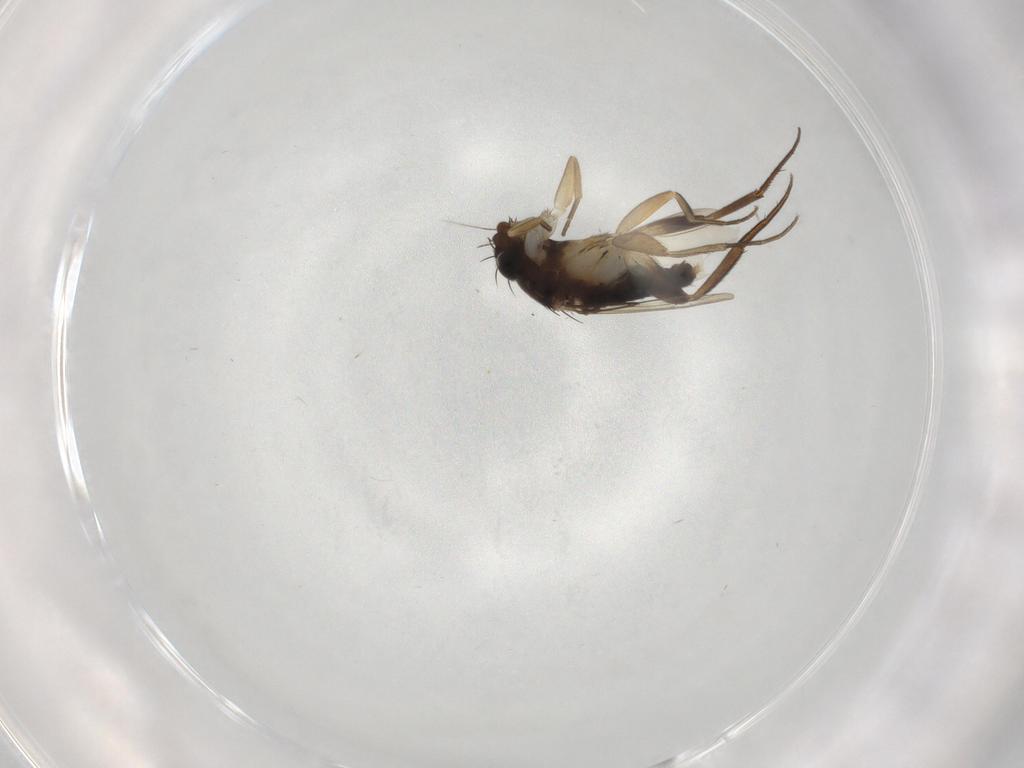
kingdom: Animalia
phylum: Arthropoda
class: Insecta
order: Diptera
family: Phoridae
